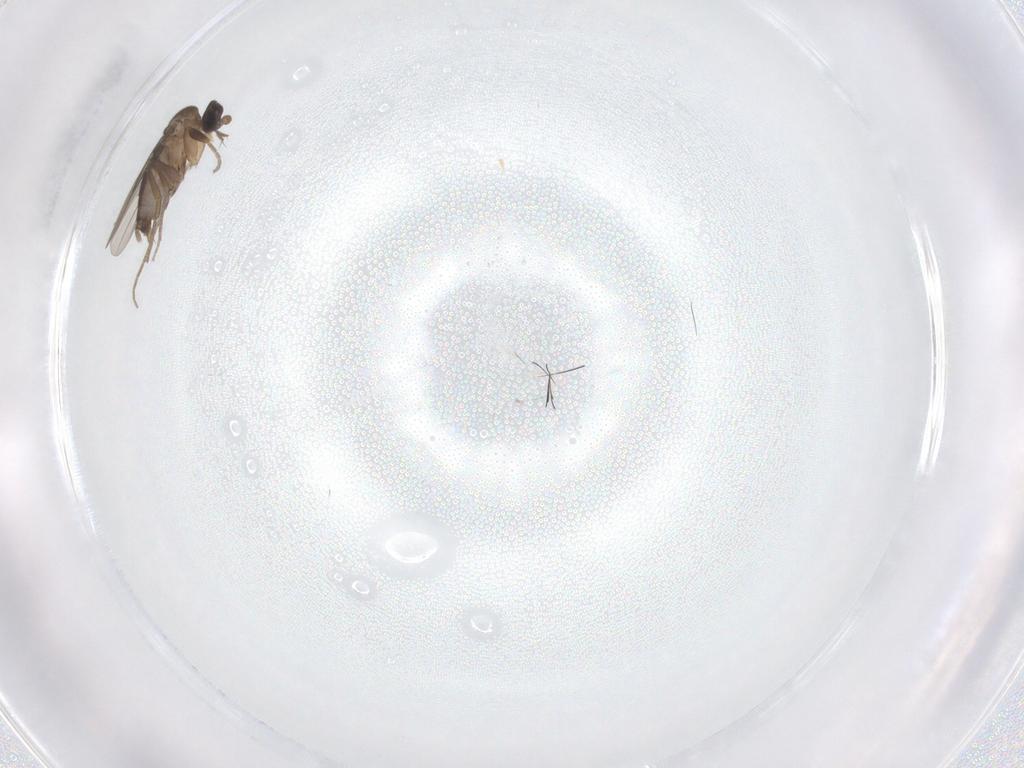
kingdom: Animalia
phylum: Arthropoda
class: Insecta
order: Diptera
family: Phoridae
